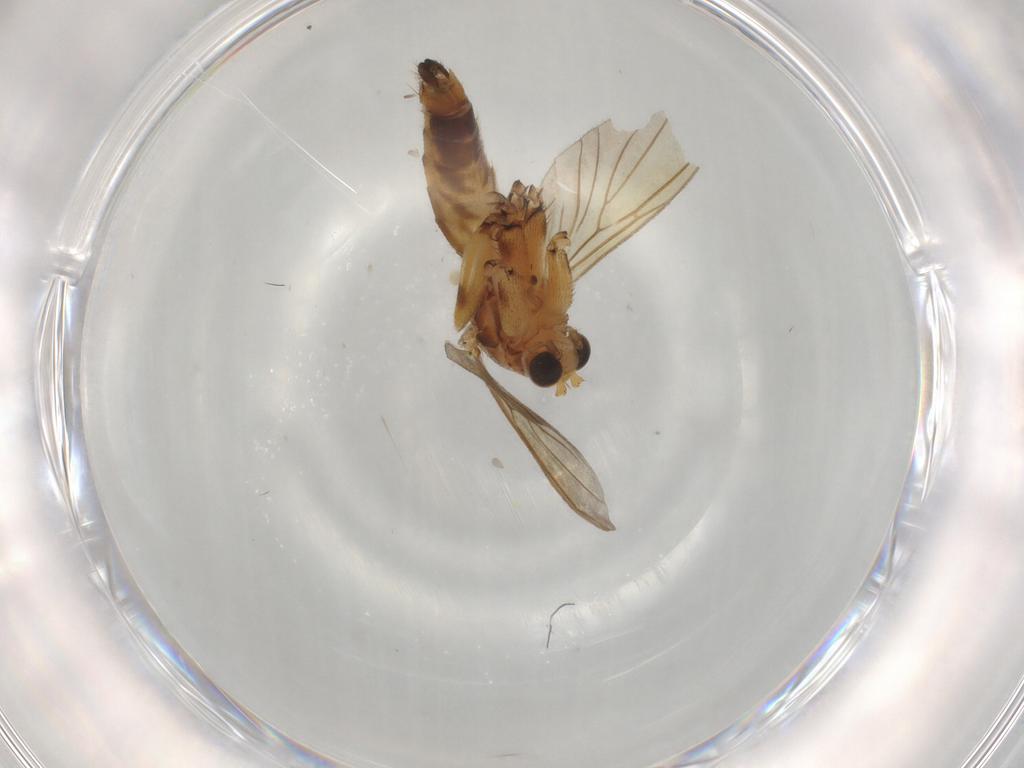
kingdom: Animalia
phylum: Arthropoda
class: Insecta
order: Diptera
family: Mycetophilidae
